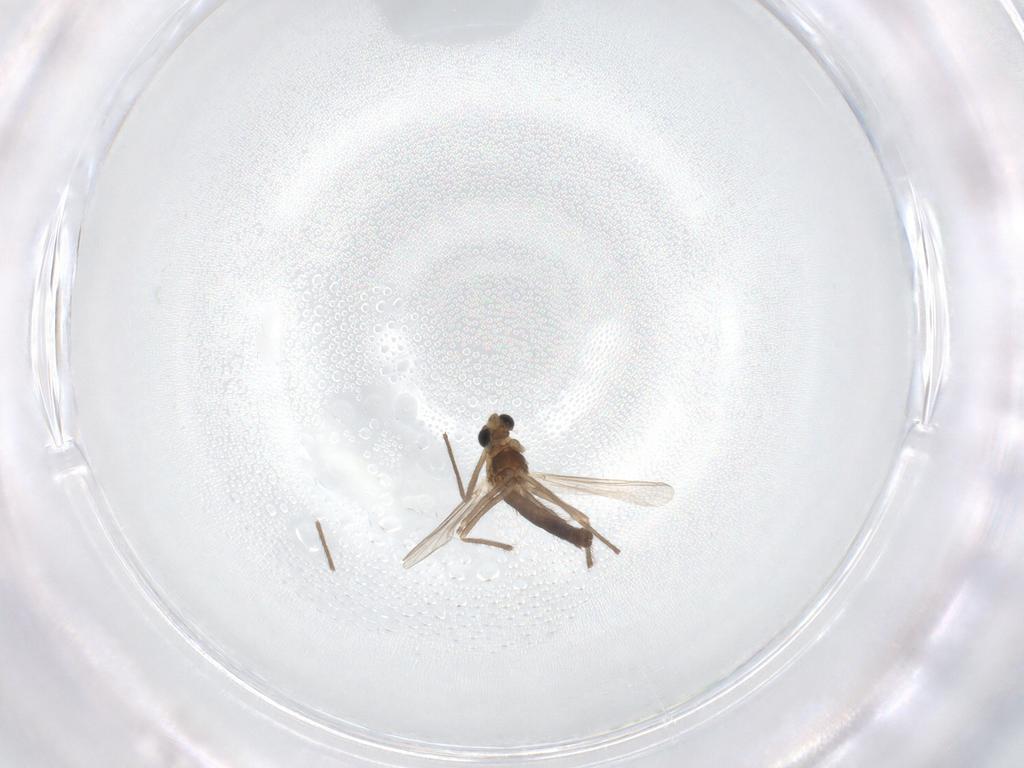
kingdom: Animalia
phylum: Arthropoda
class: Insecta
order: Diptera
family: Chironomidae
